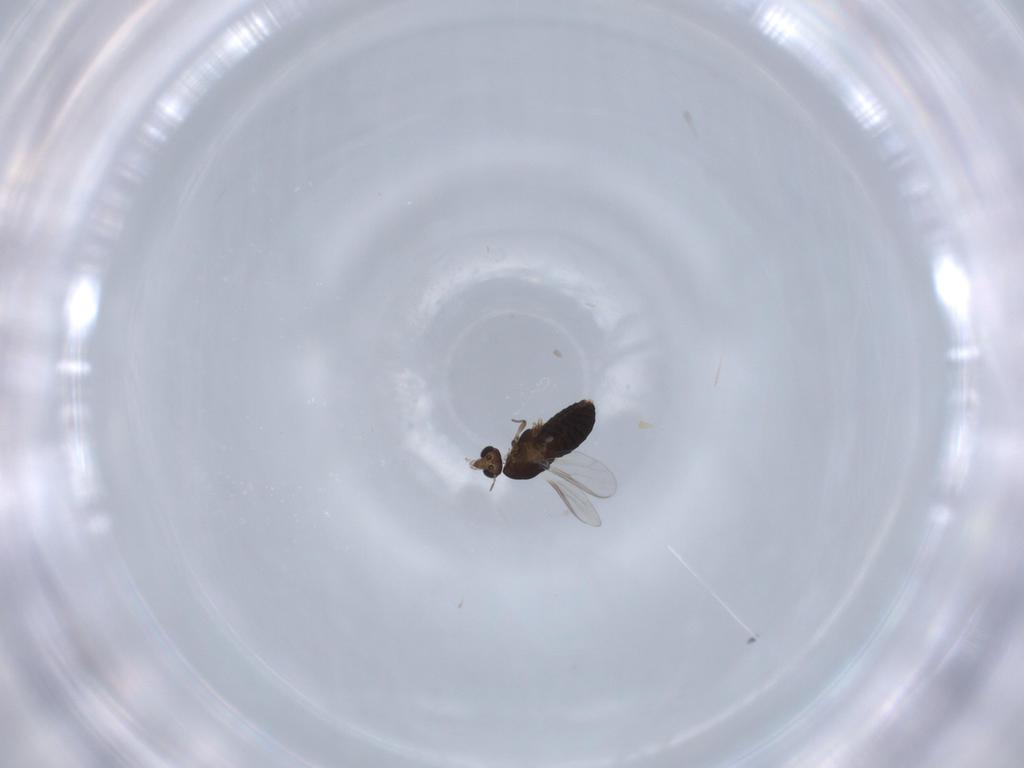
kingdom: Animalia
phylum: Arthropoda
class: Insecta
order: Diptera
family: Chironomidae
